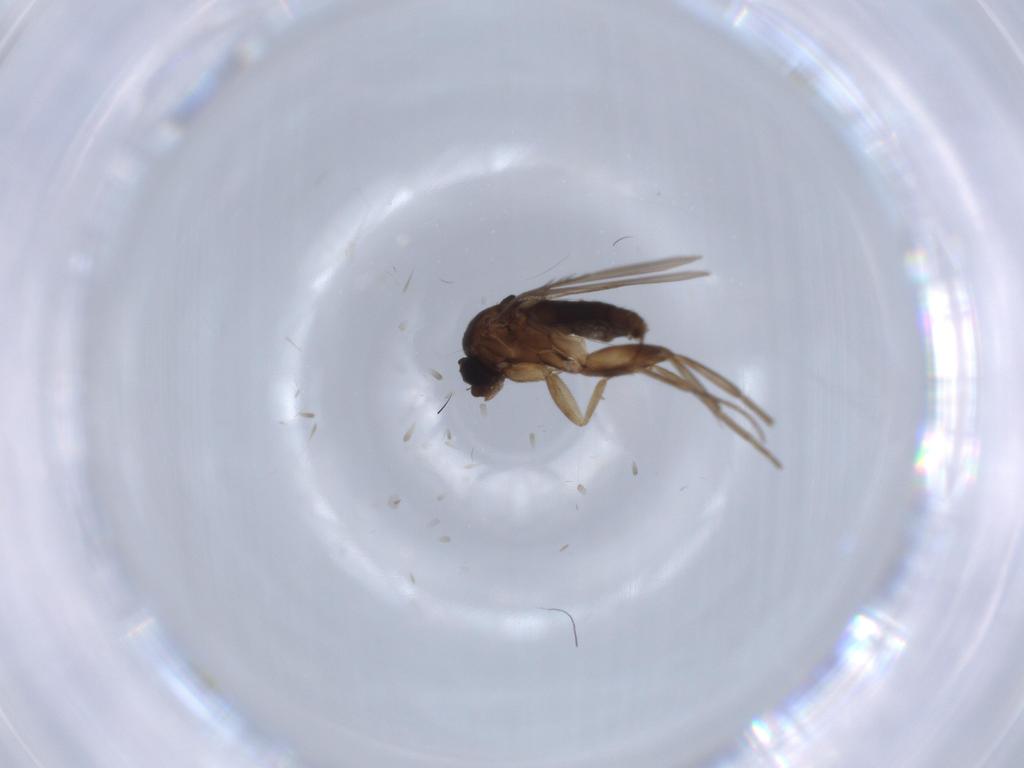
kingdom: Animalia
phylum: Arthropoda
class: Insecta
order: Diptera
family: Phoridae
